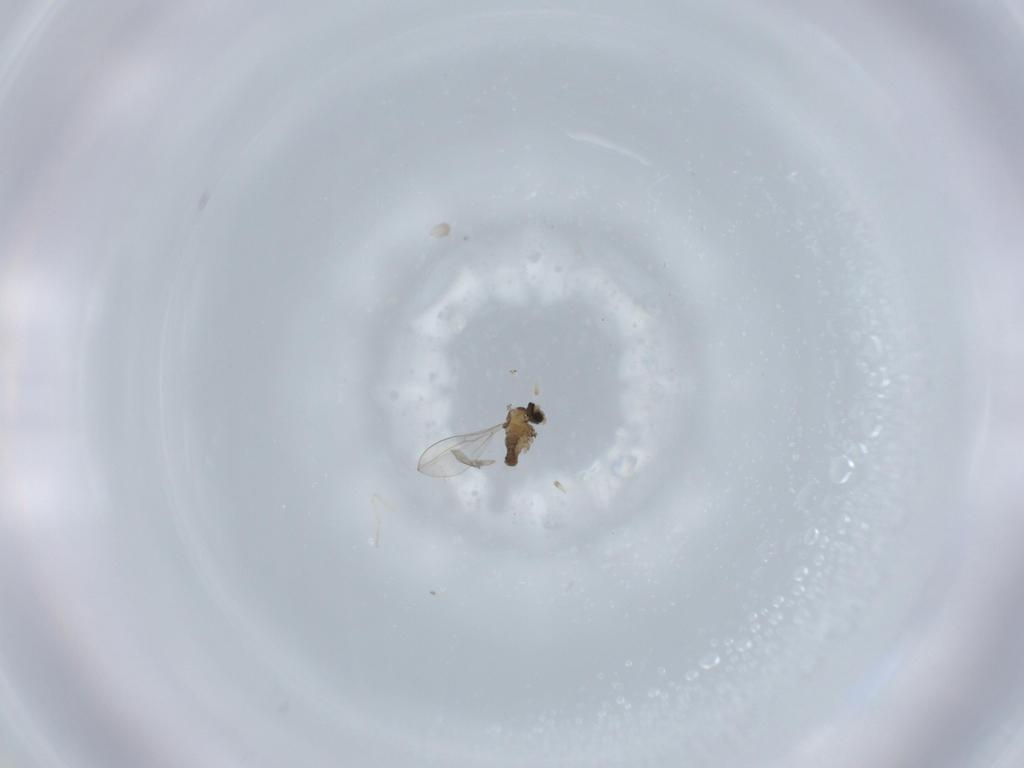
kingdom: Animalia
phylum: Arthropoda
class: Insecta
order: Diptera
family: Cecidomyiidae
